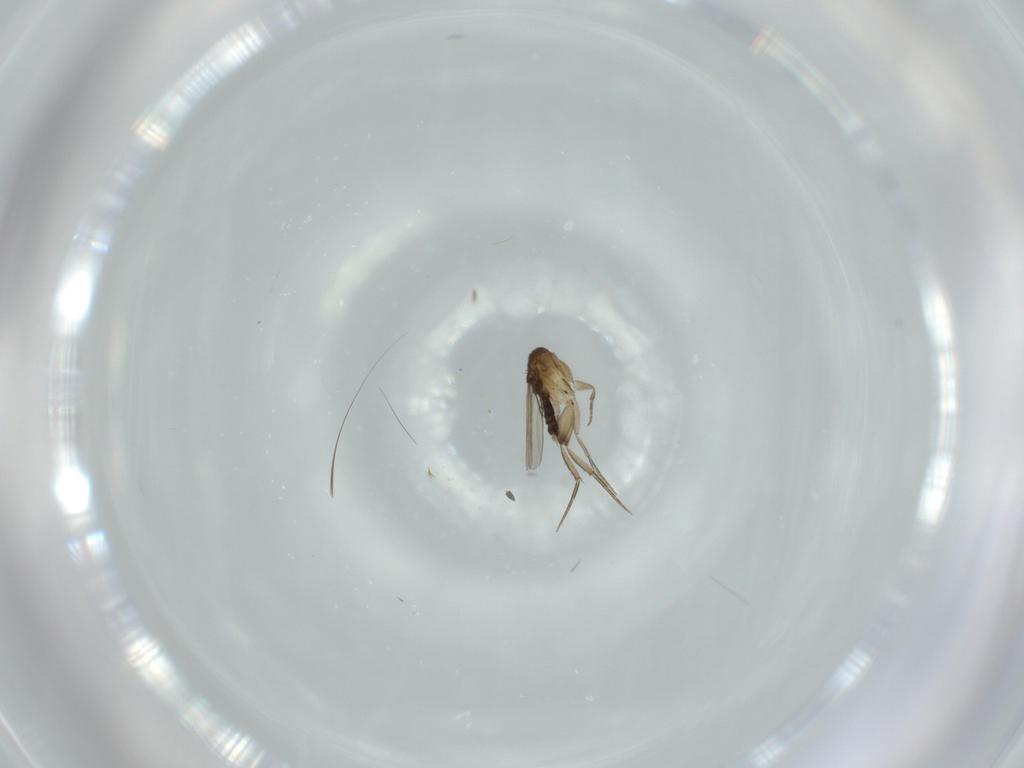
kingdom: Animalia
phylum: Arthropoda
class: Insecta
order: Diptera
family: Phoridae
